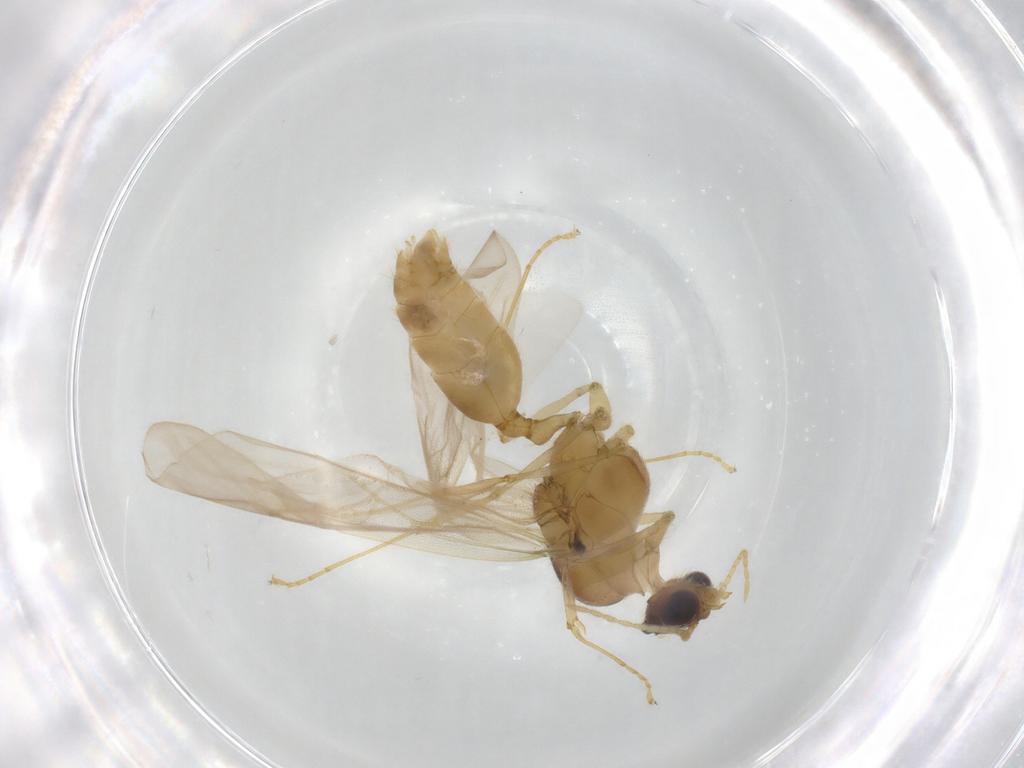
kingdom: Animalia
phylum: Arthropoda
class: Insecta
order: Hymenoptera
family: Formicidae
